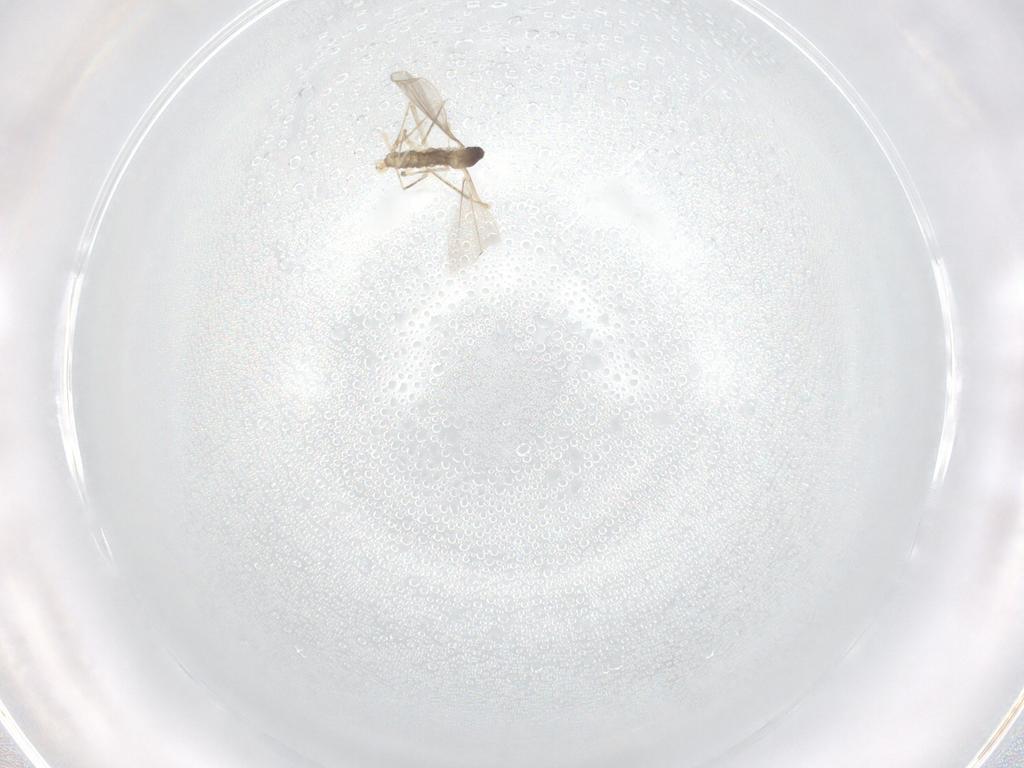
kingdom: Animalia
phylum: Arthropoda
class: Insecta
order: Diptera
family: Cecidomyiidae
